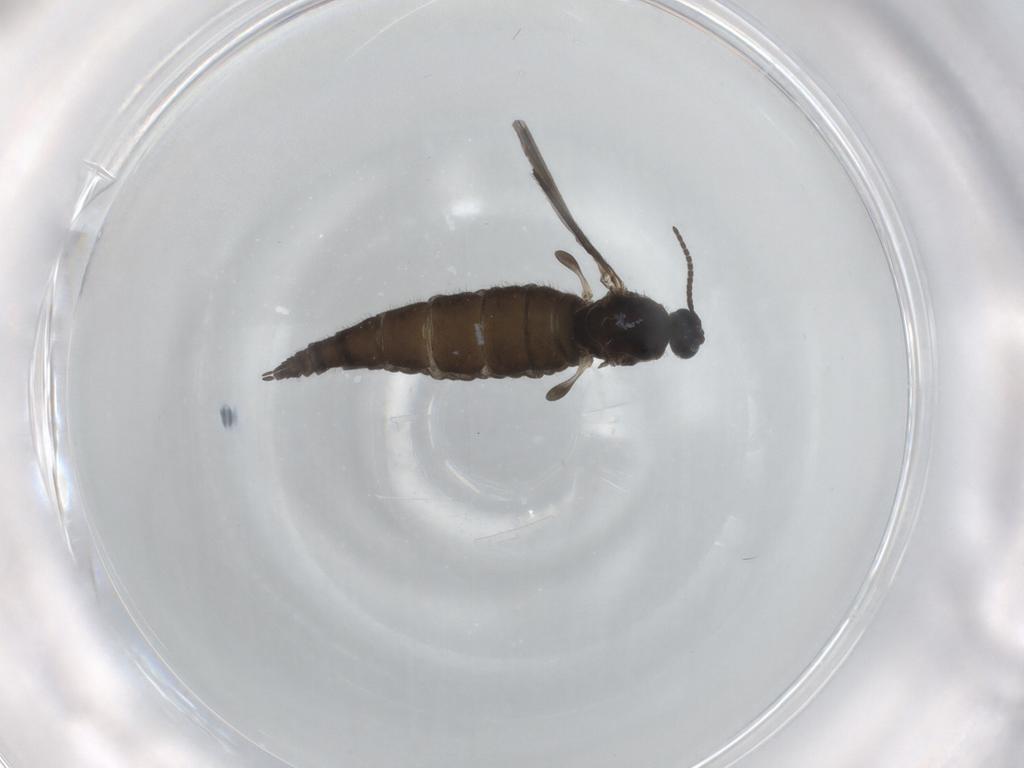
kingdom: Animalia
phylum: Arthropoda
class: Insecta
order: Diptera
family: Sciaridae
